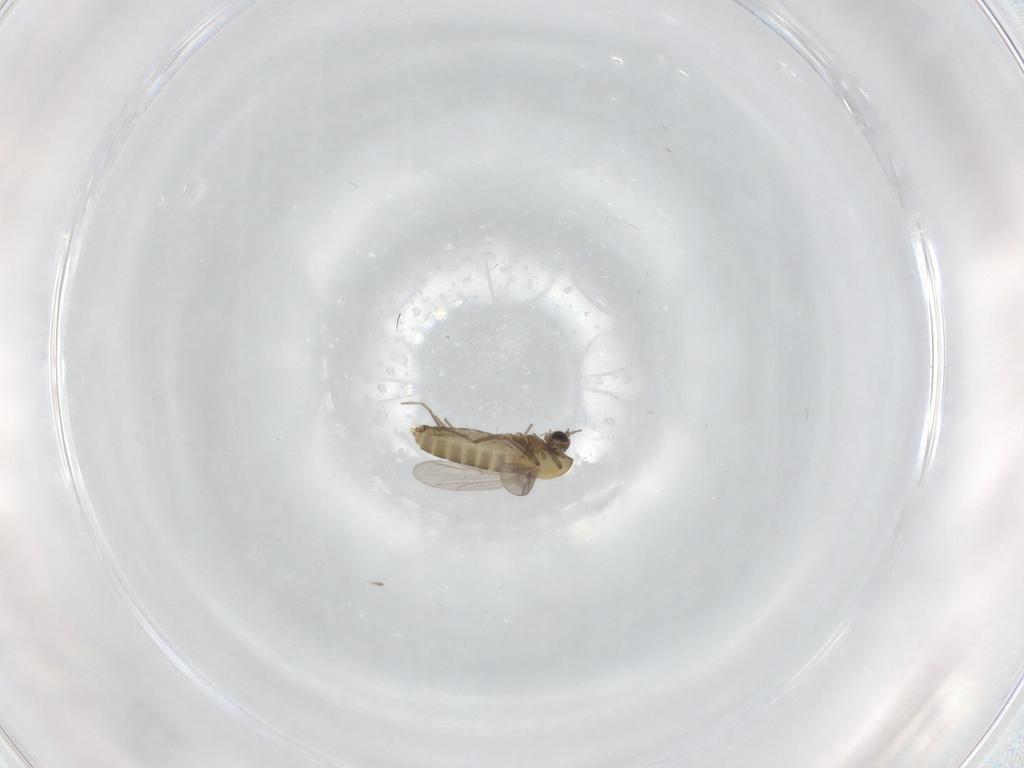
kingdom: Animalia
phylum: Arthropoda
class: Insecta
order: Diptera
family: Chironomidae
